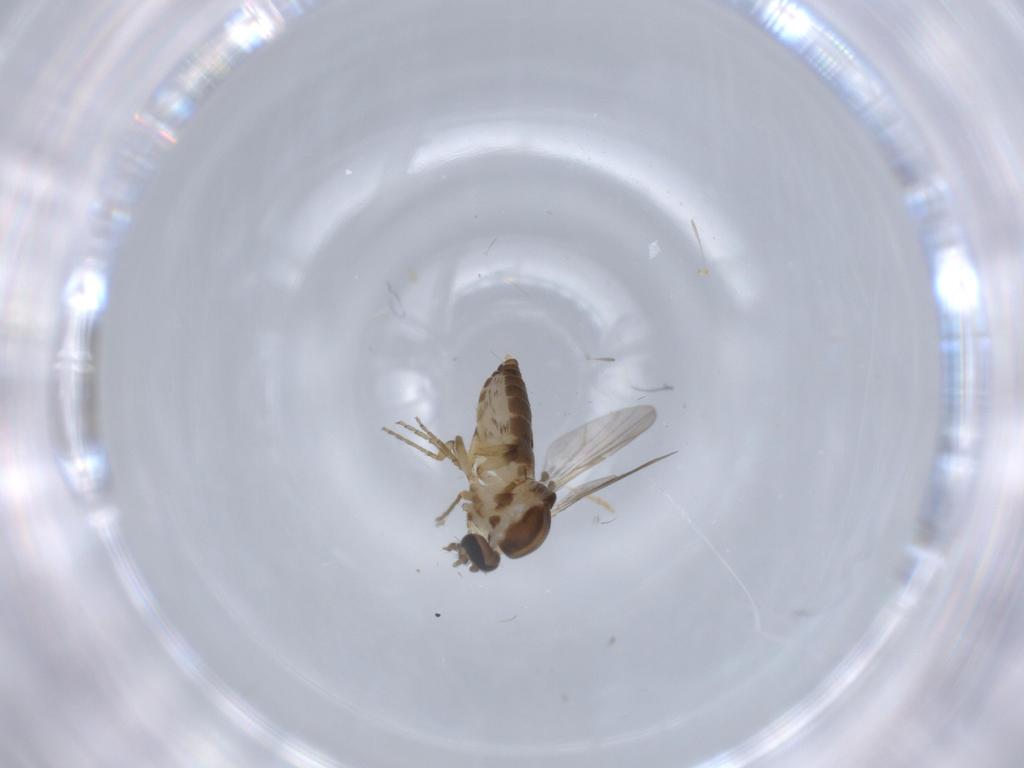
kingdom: Animalia
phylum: Arthropoda
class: Insecta
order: Diptera
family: Ceratopogonidae
